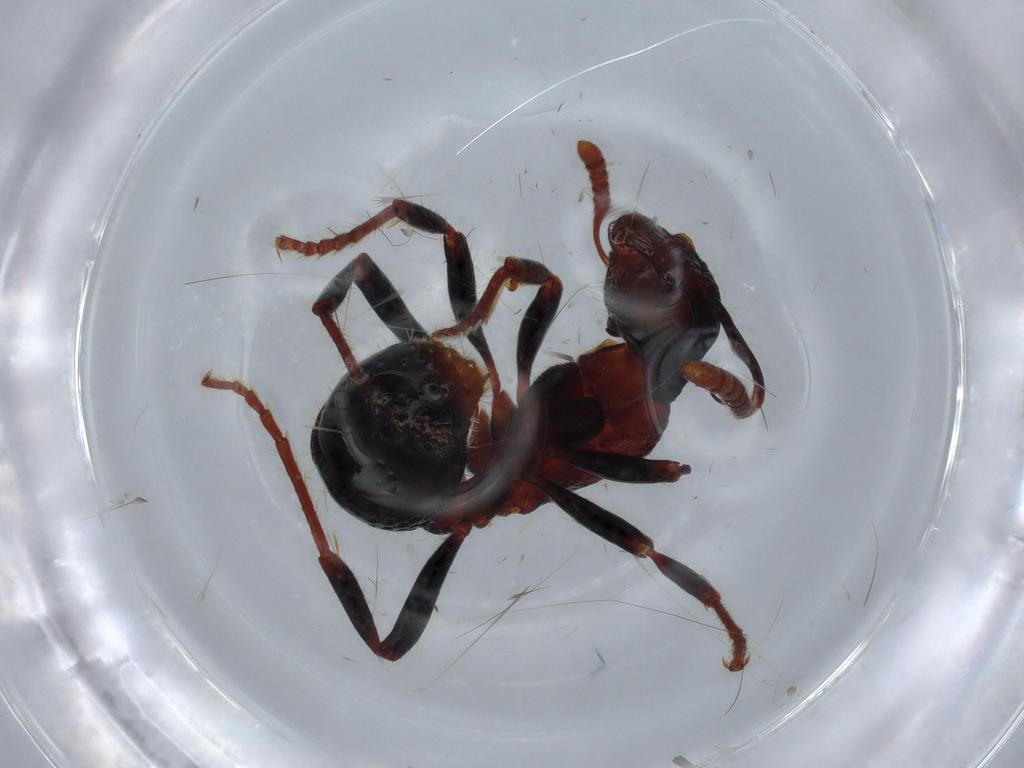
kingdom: Animalia
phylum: Arthropoda
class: Insecta
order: Hymenoptera
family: Formicidae
